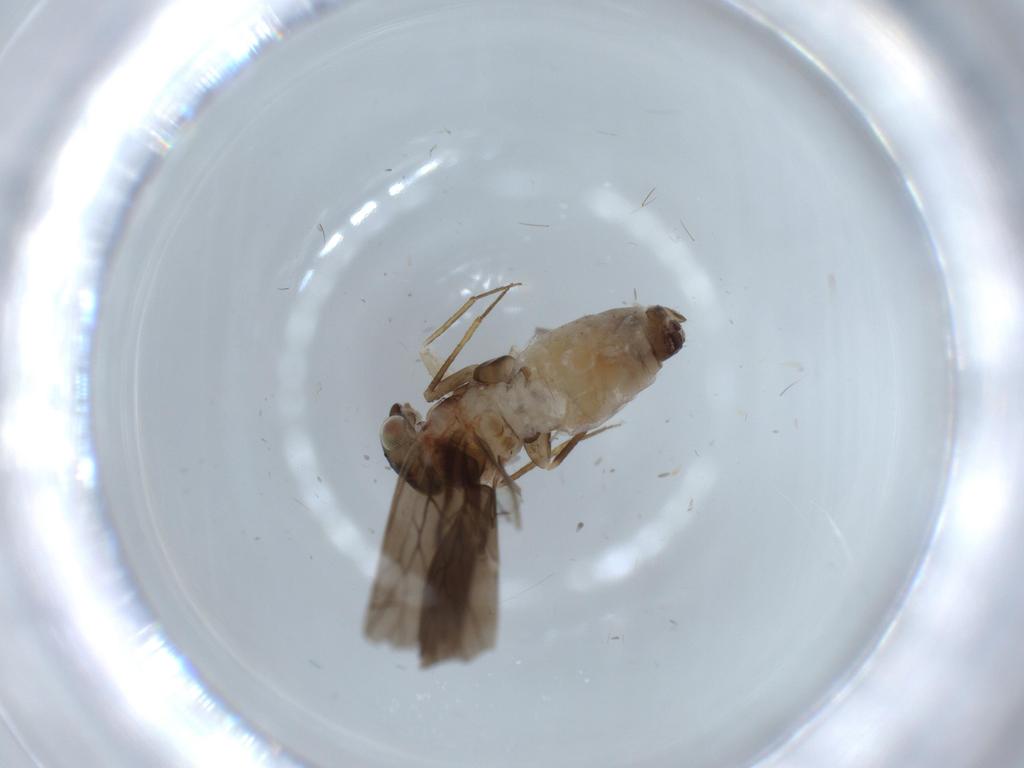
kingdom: Animalia
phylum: Arthropoda
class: Insecta
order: Psocodea
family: Lepidopsocidae
